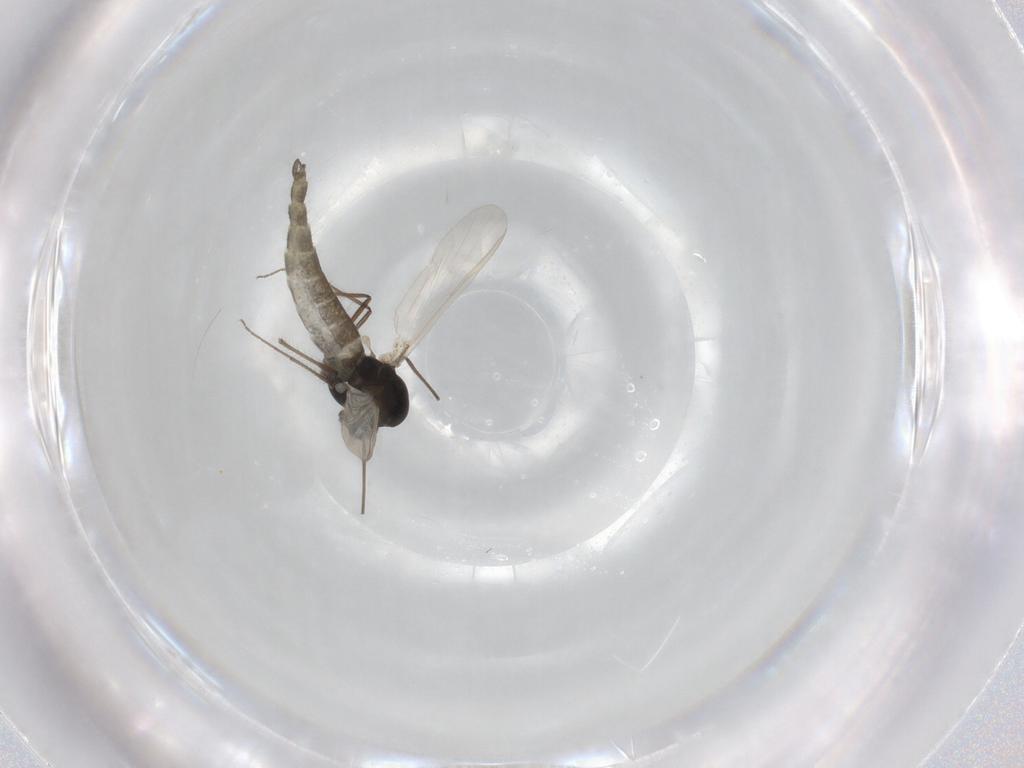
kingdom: Animalia
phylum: Arthropoda
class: Insecta
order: Diptera
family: Chironomidae
